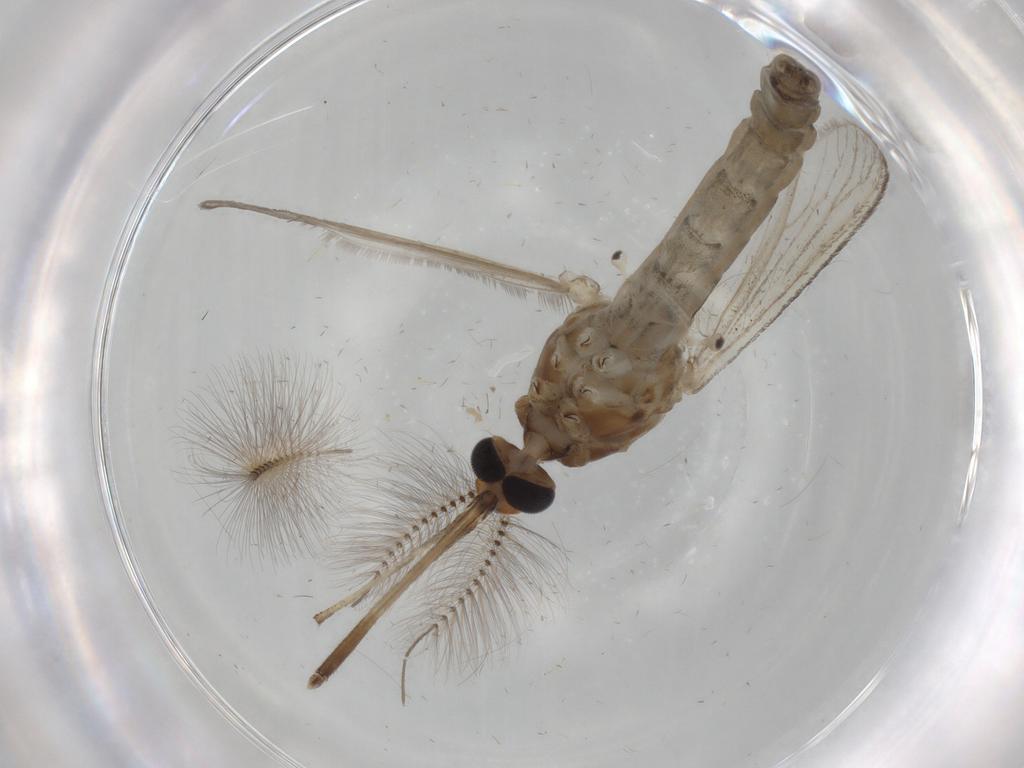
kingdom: Animalia
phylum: Arthropoda
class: Insecta
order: Diptera
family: Ceratopogonidae
